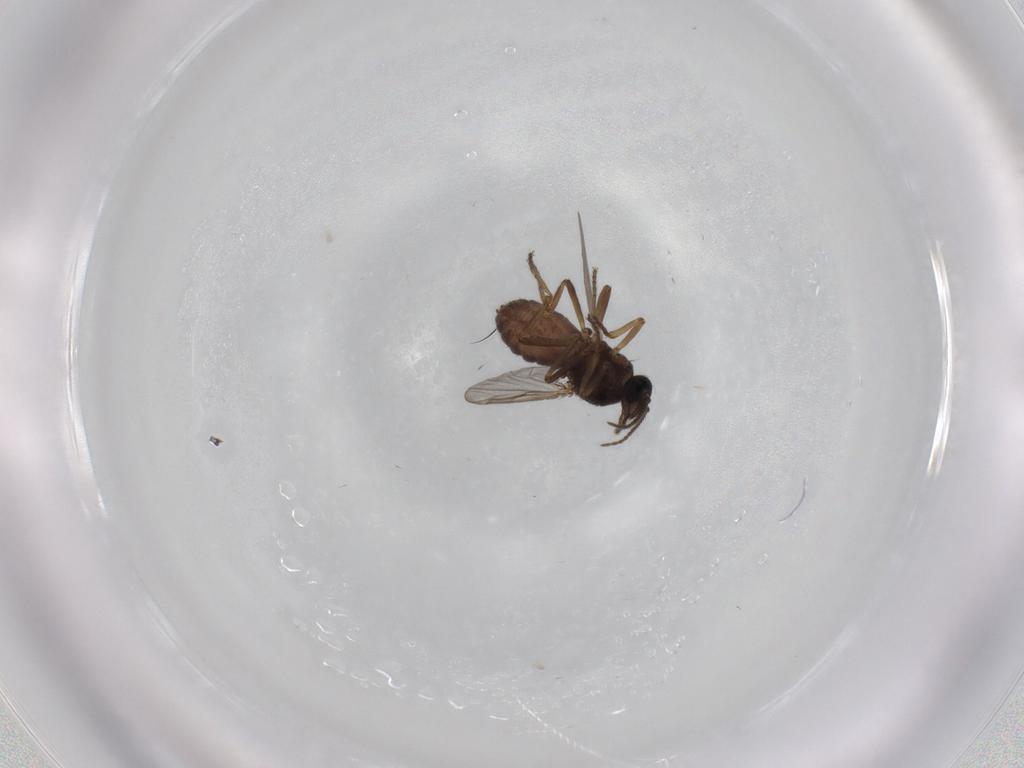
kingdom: Animalia
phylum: Arthropoda
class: Insecta
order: Diptera
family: Ceratopogonidae
